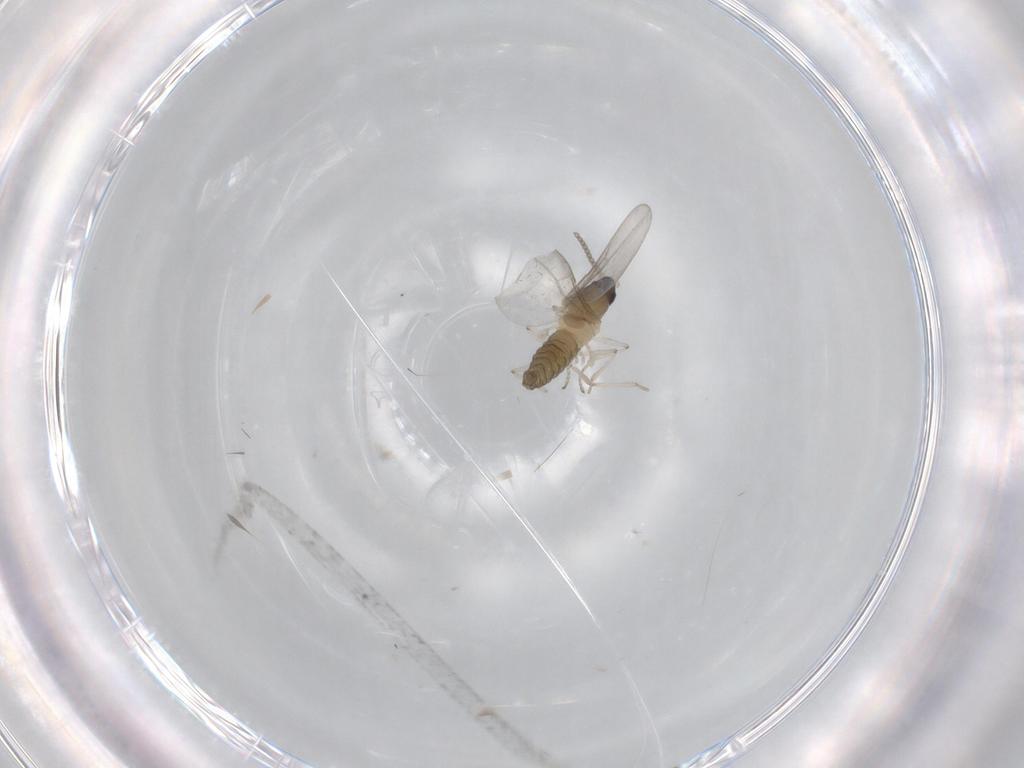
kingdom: Animalia
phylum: Arthropoda
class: Insecta
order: Diptera
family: Cecidomyiidae
